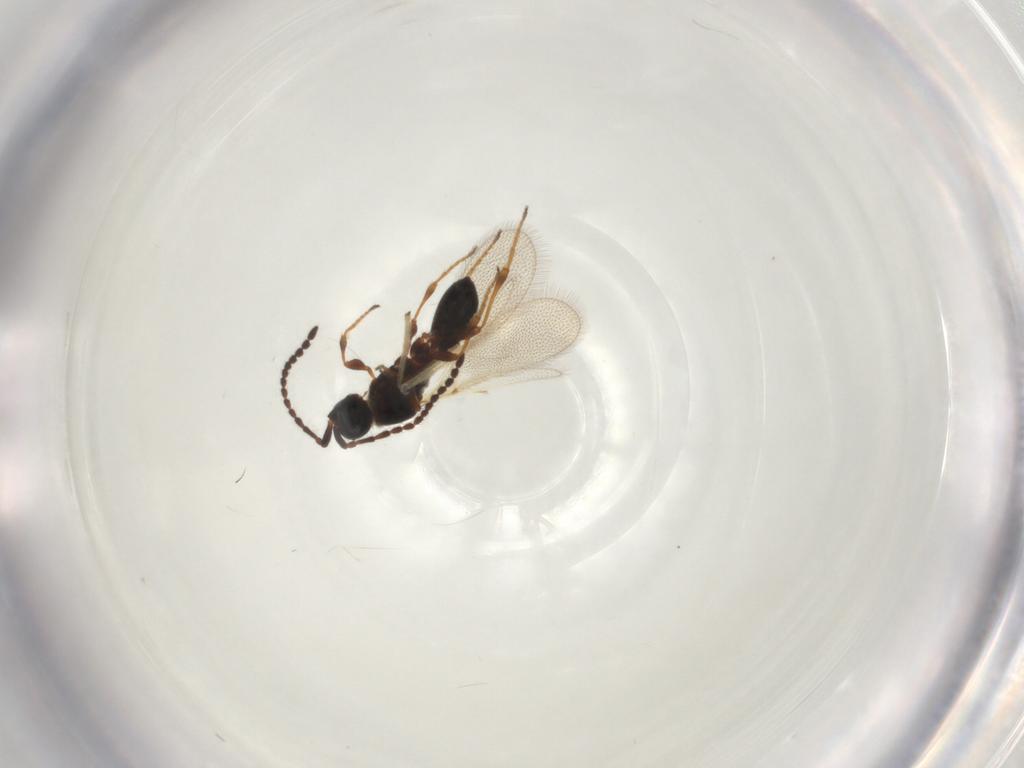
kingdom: Animalia
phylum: Arthropoda
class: Insecta
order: Hymenoptera
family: Diapriidae
